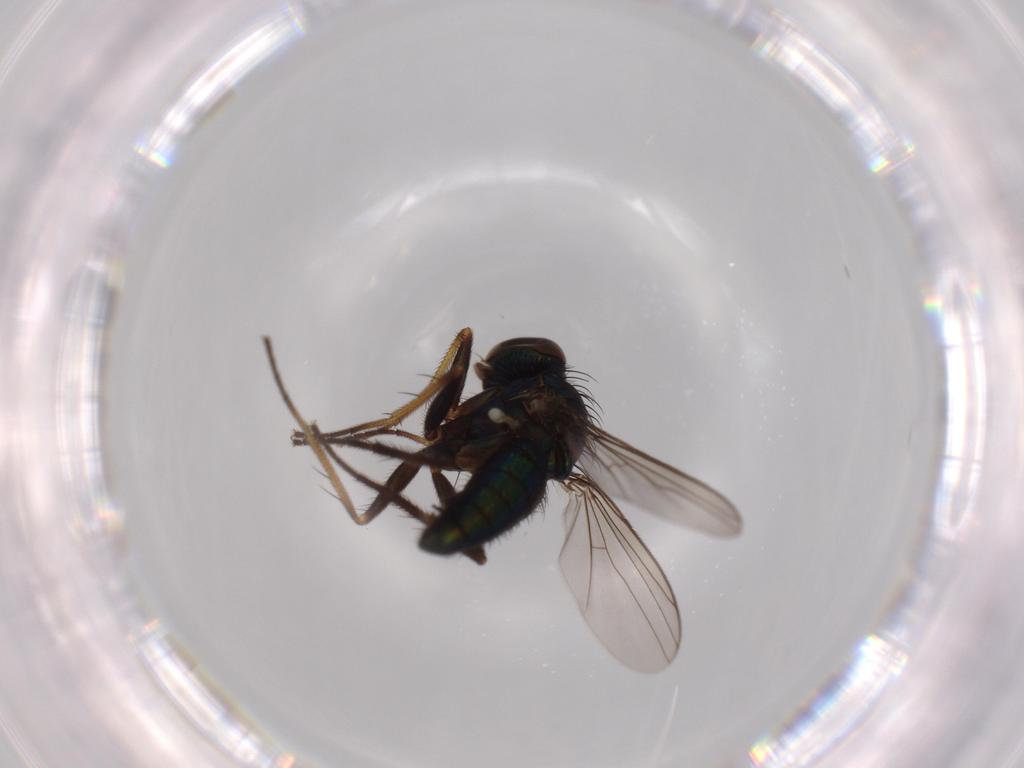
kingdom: Animalia
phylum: Arthropoda
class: Insecta
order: Diptera
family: Dolichopodidae
